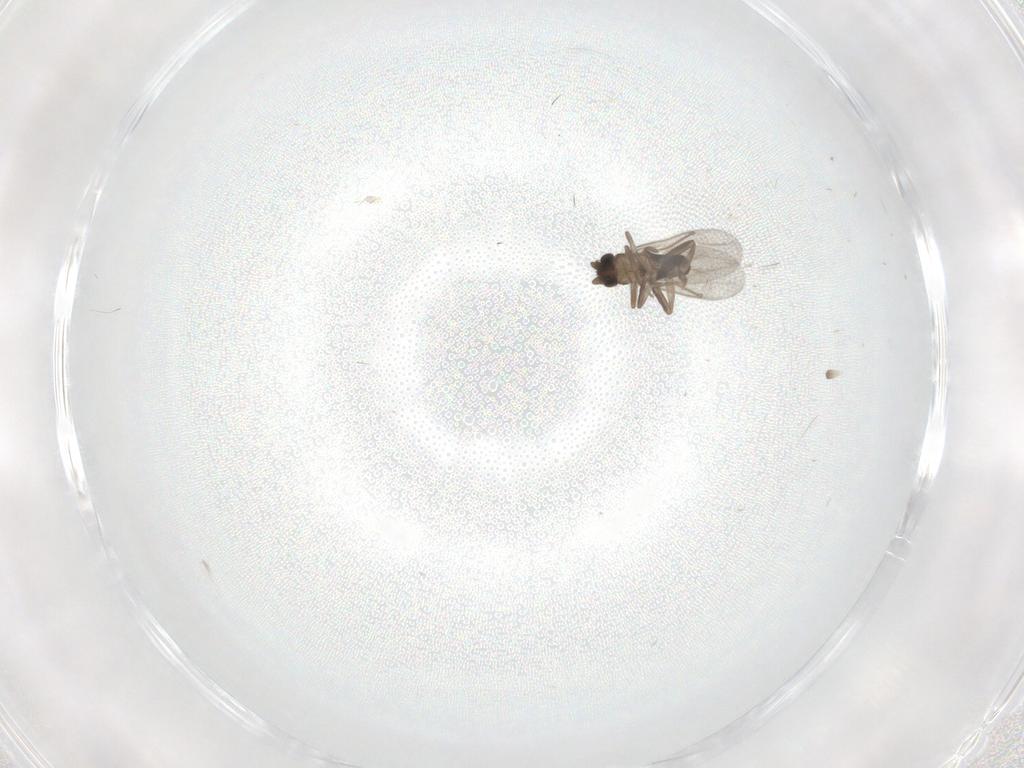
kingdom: Animalia
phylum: Arthropoda
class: Insecta
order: Diptera
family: Cecidomyiidae
